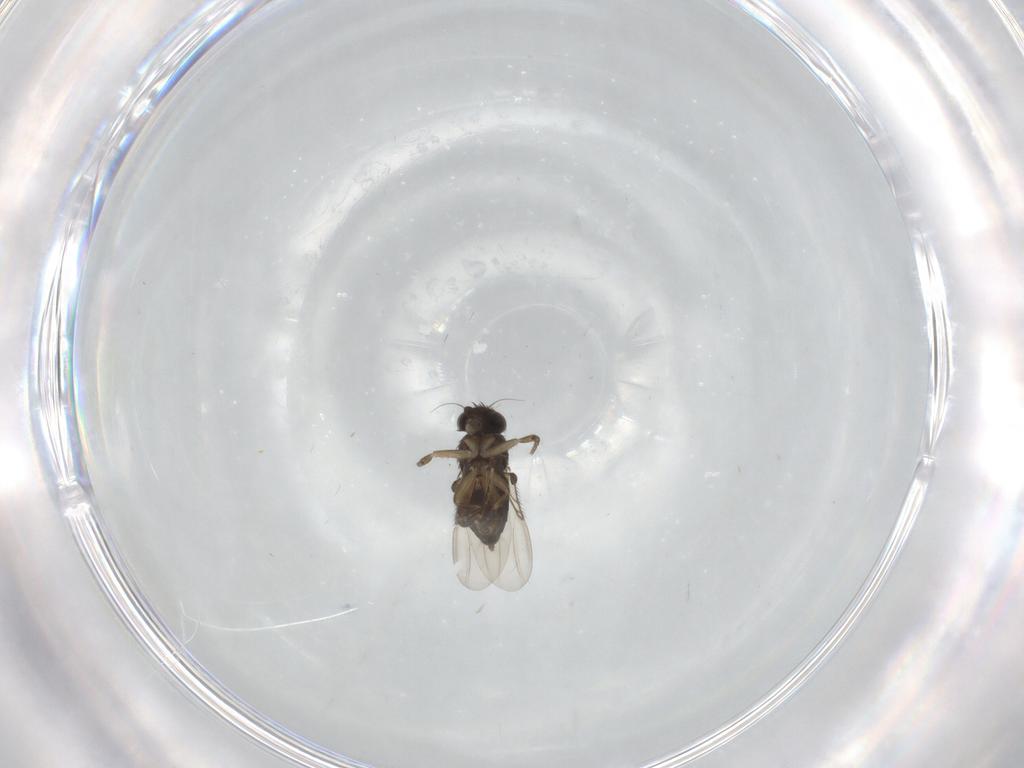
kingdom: Animalia
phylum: Arthropoda
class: Insecta
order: Diptera
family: Phoridae
